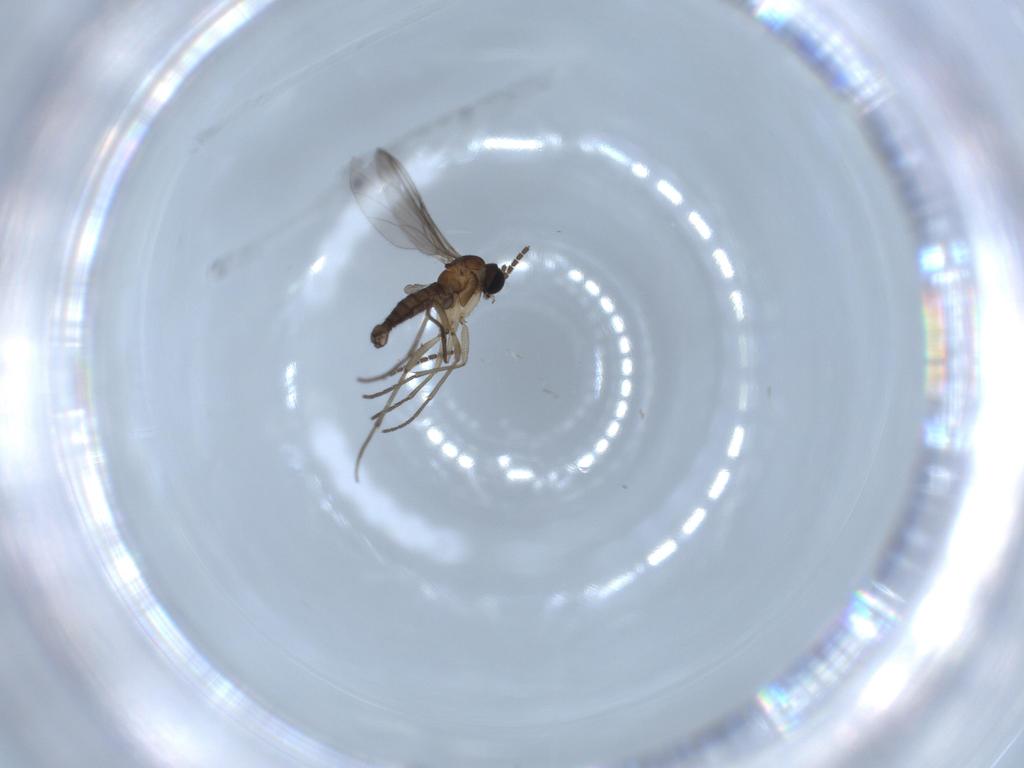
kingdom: Animalia
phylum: Arthropoda
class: Insecta
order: Diptera
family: Sciaridae
